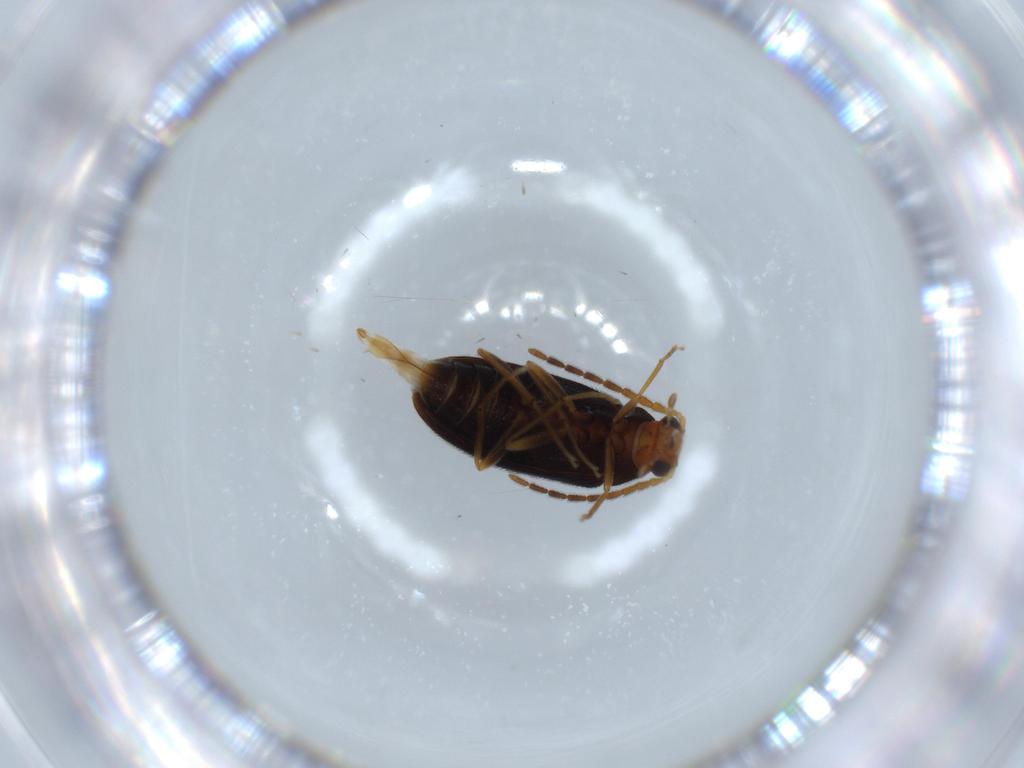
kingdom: Animalia
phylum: Arthropoda
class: Insecta
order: Coleoptera
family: Melandryidae
